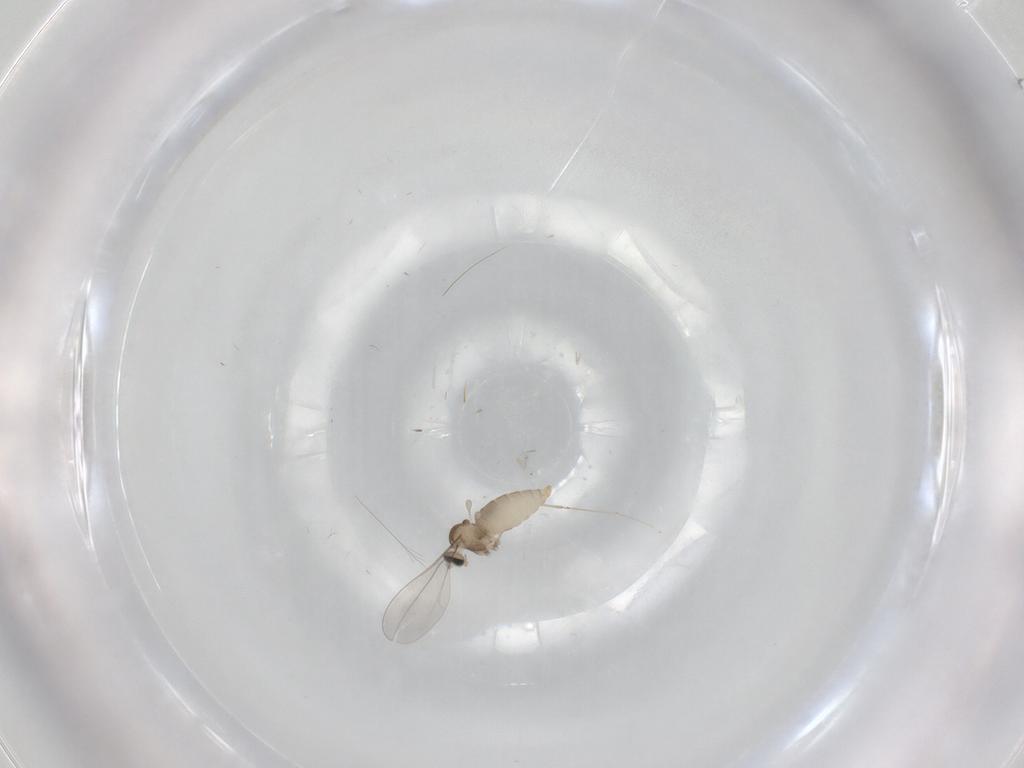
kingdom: Animalia
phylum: Arthropoda
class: Insecta
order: Diptera
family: Cecidomyiidae
